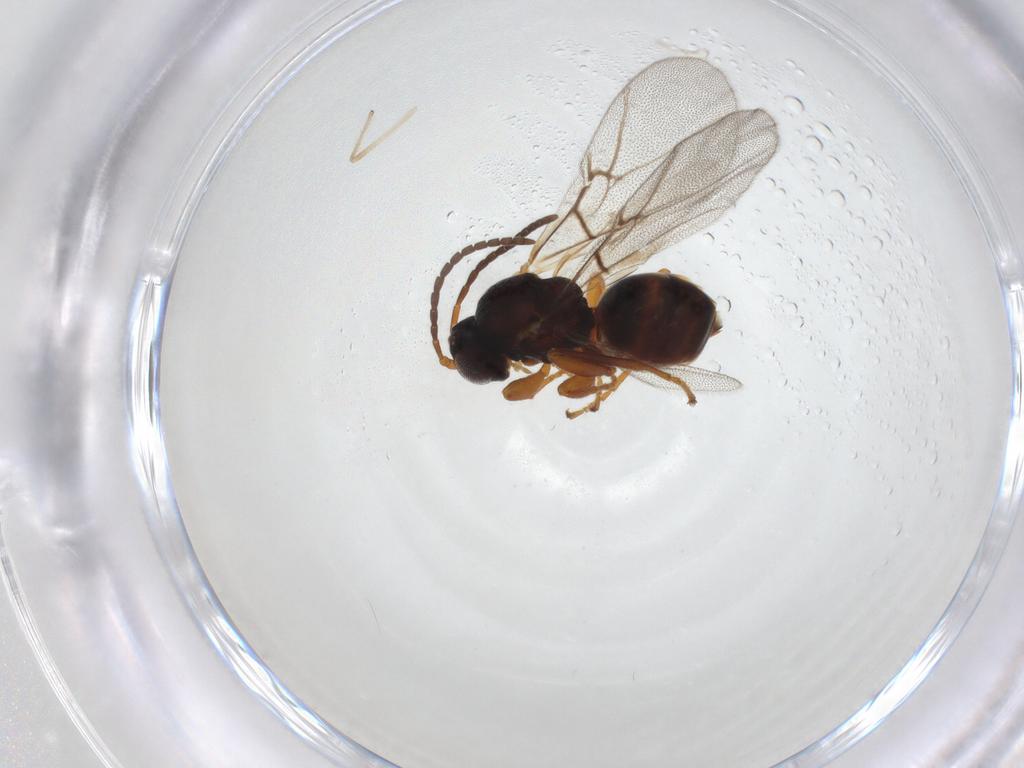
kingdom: Animalia
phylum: Arthropoda
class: Insecta
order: Hymenoptera
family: Cynipidae
